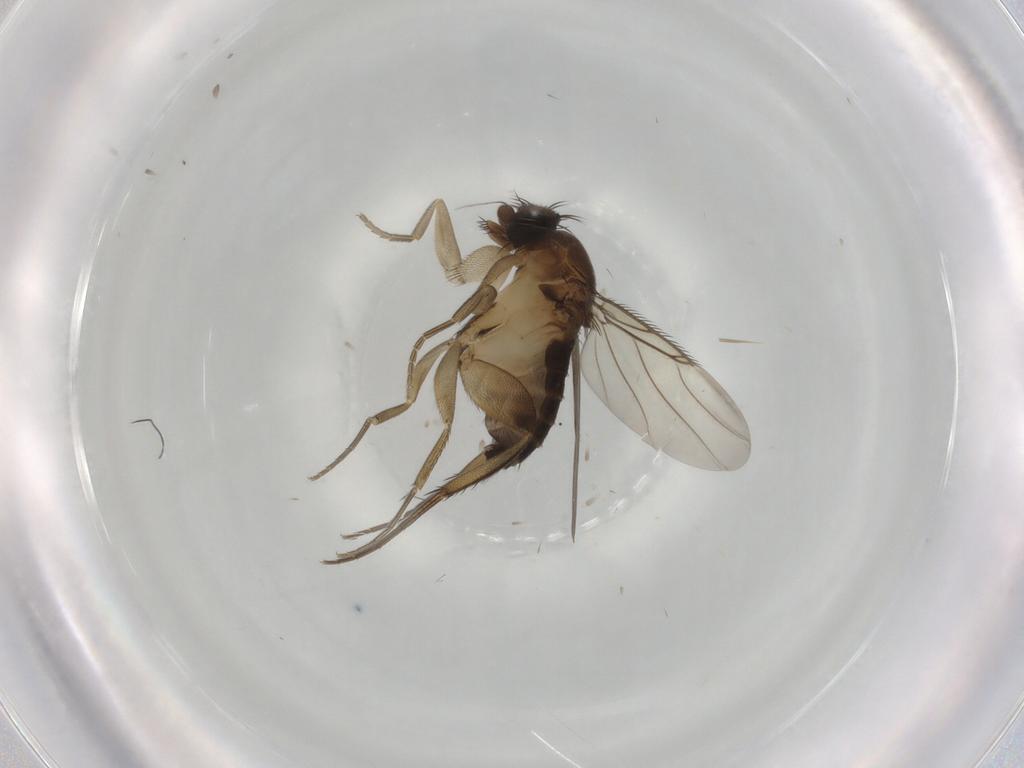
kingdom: Animalia
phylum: Arthropoda
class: Insecta
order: Diptera
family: Phoridae
